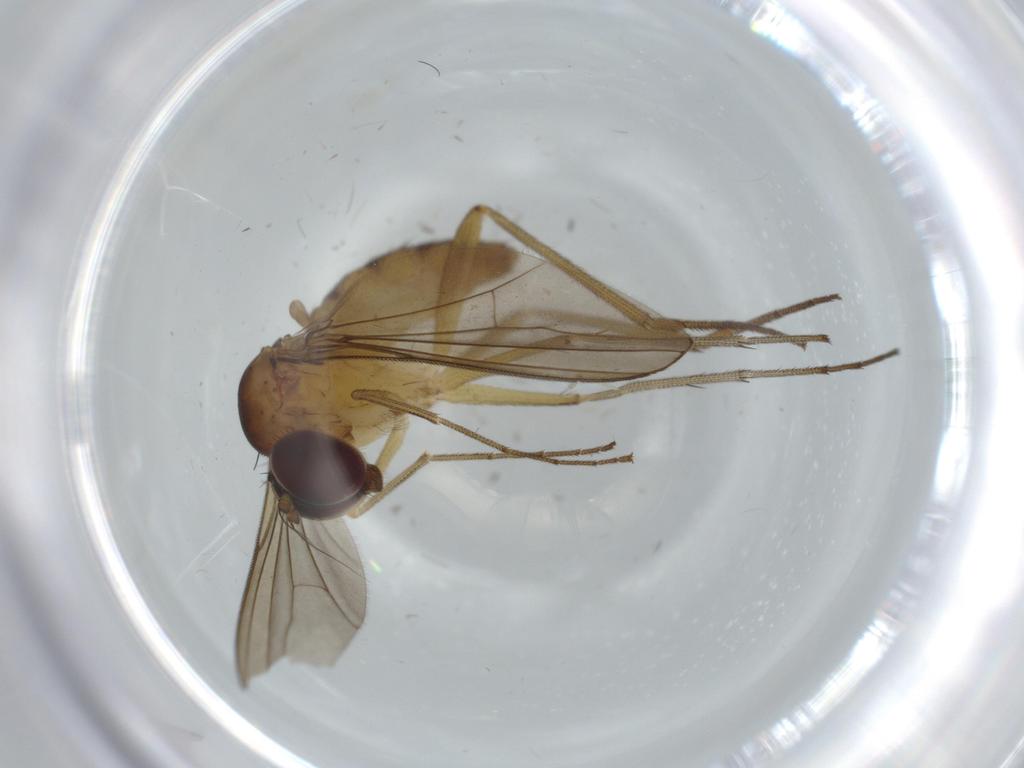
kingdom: Animalia
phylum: Arthropoda
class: Insecta
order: Diptera
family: Dolichopodidae
